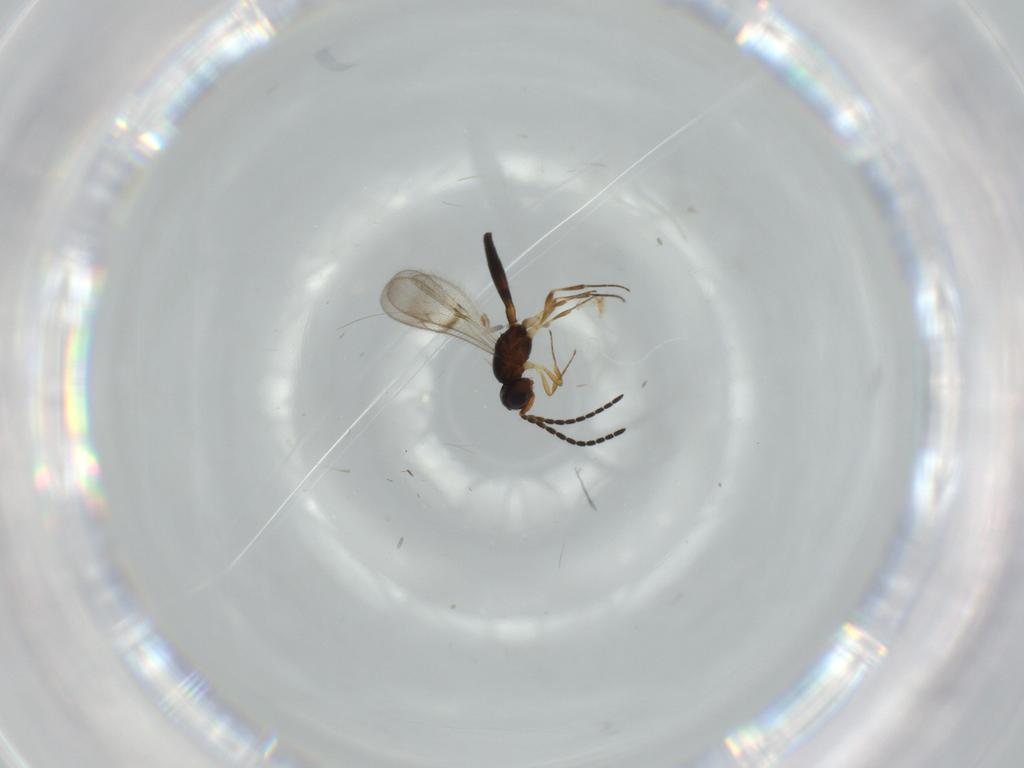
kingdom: Animalia
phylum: Arthropoda
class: Insecta
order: Hymenoptera
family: Scelionidae
